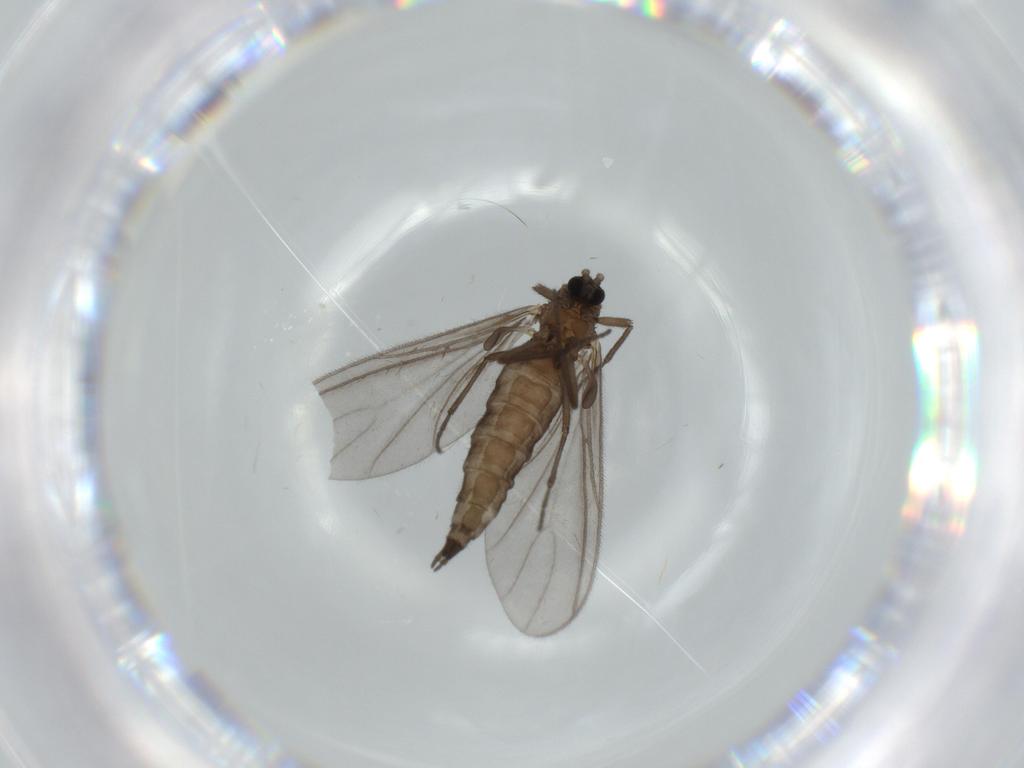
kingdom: Animalia
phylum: Arthropoda
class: Insecta
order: Diptera
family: Sciaridae
